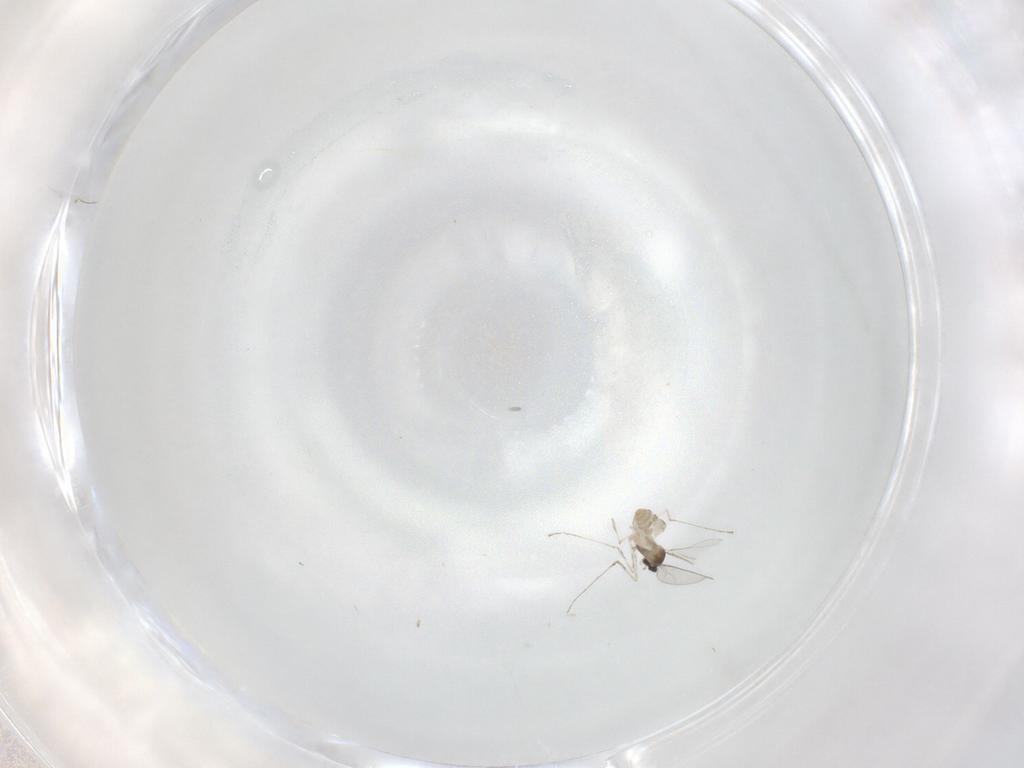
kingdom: Animalia
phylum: Arthropoda
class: Insecta
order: Diptera
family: Cecidomyiidae
